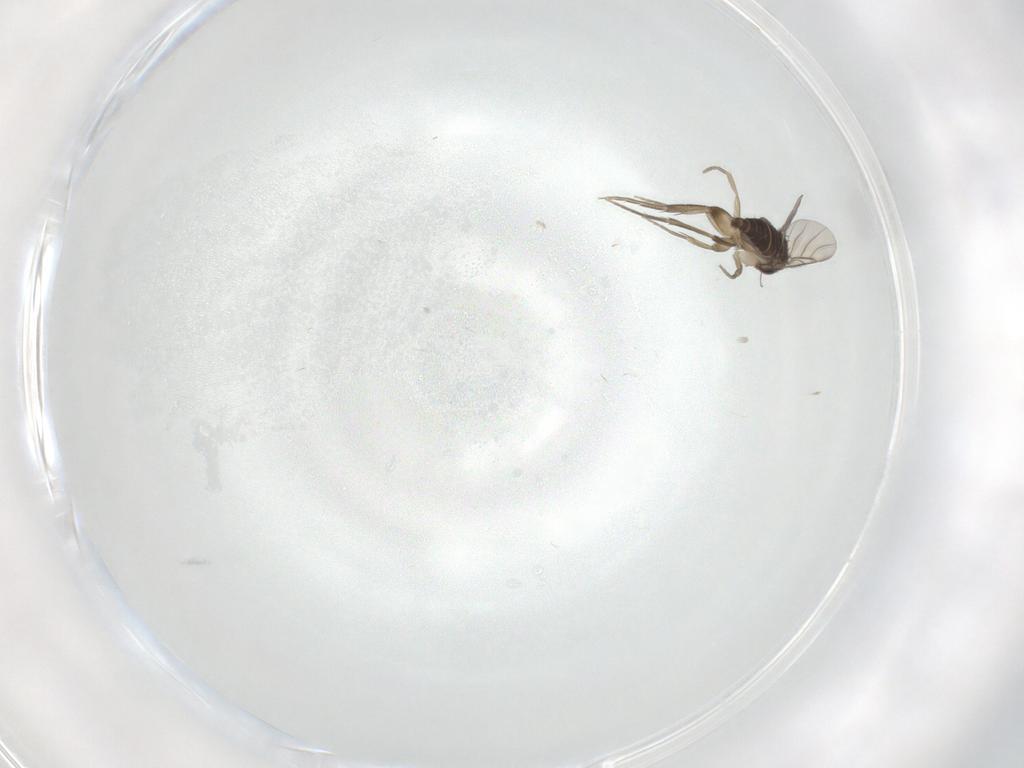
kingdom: Animalia
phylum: Arthropoda
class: Insecta
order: Diptera
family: Phoridae
